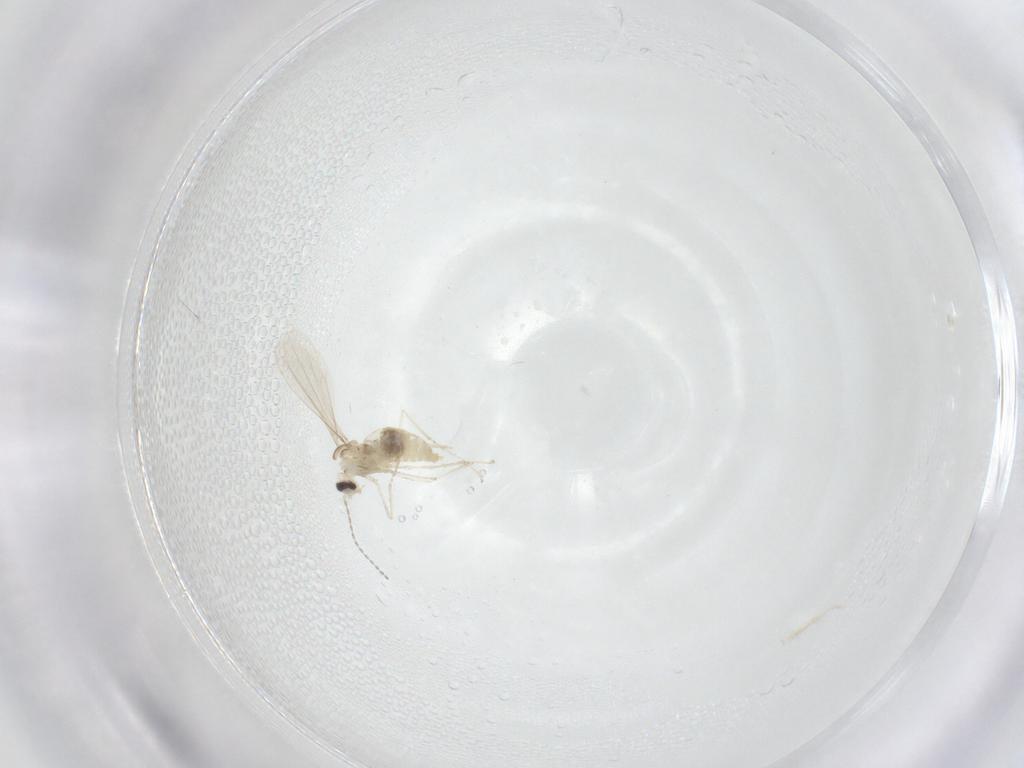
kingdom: Animalia
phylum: Arthropoda
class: Insecta
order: Diptera
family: Cecidomyiidae
